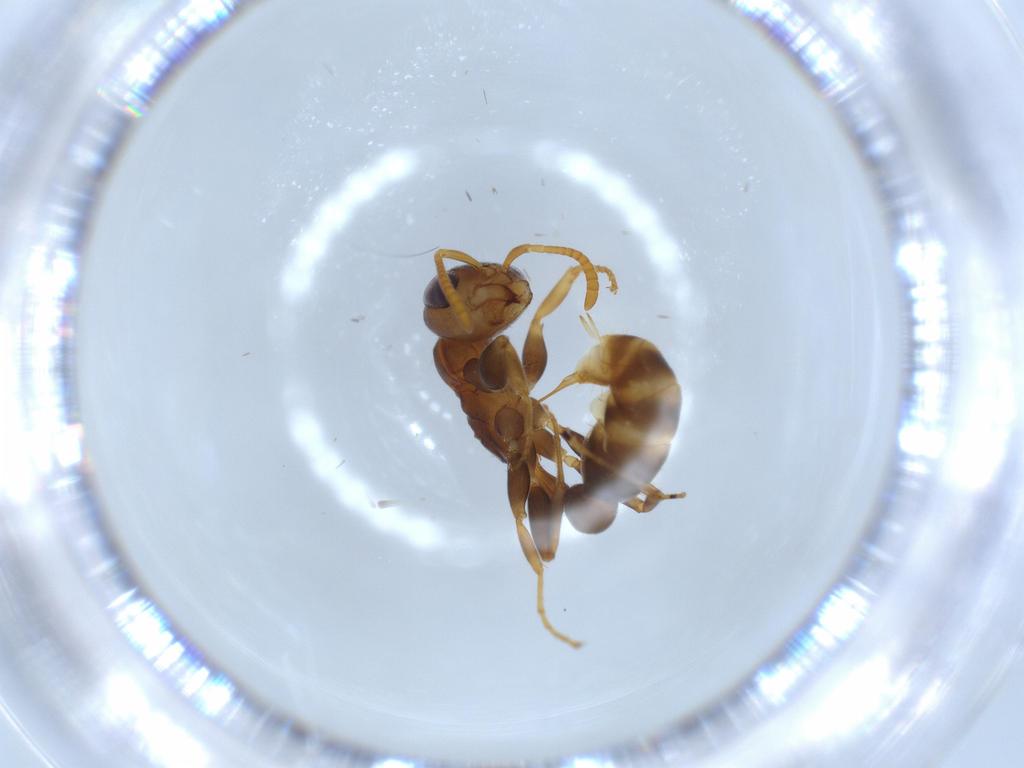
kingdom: Animalia
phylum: Arthropoda
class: Insecta
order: Hymenoptera
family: Formicidae
